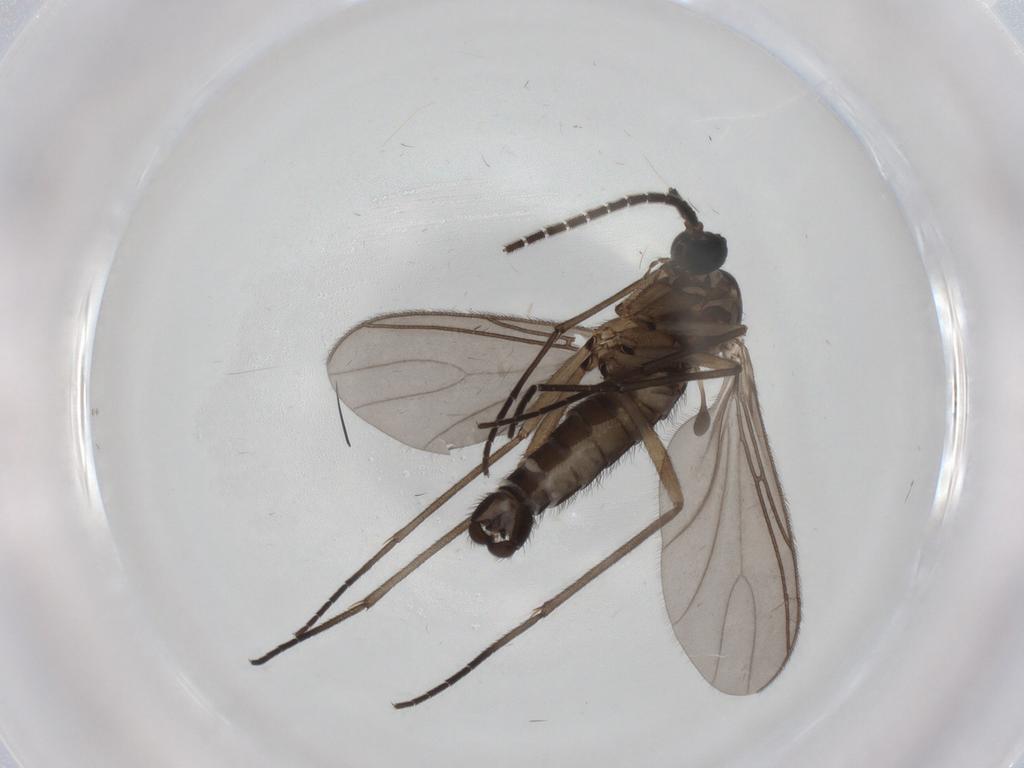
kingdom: Animalia
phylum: Arthropoda
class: Insecta
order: Diptera
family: Sciaridae
